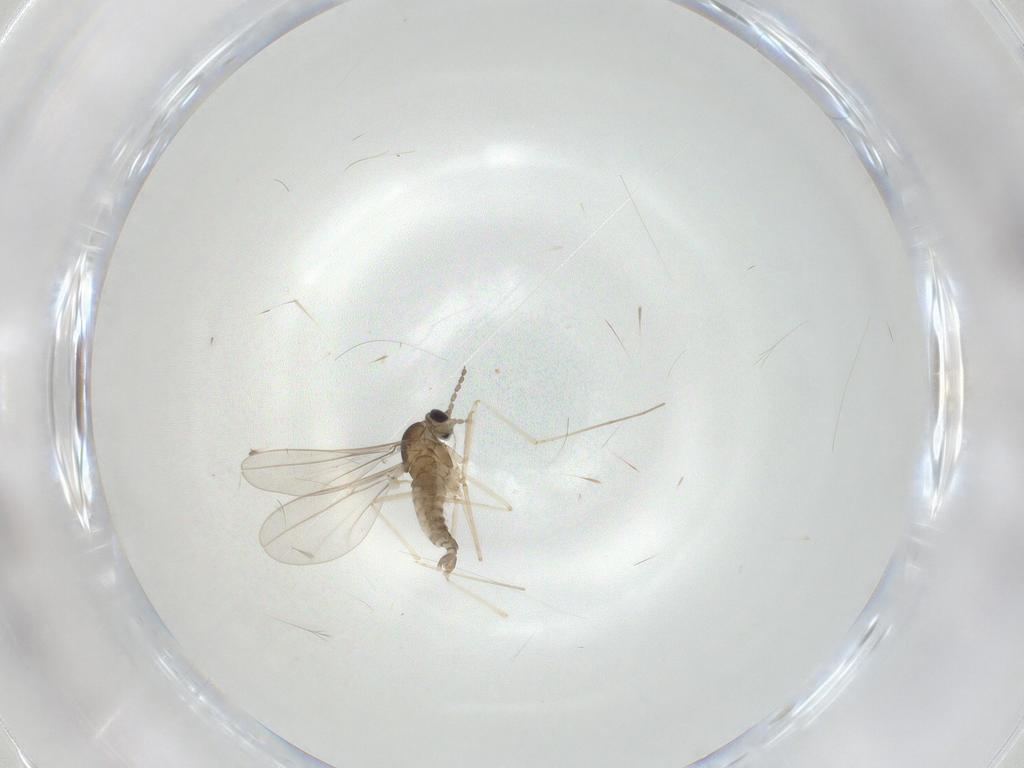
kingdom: Animalia
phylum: Arthropoda
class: Insecta
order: Diptera
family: Cecidomyiidae
